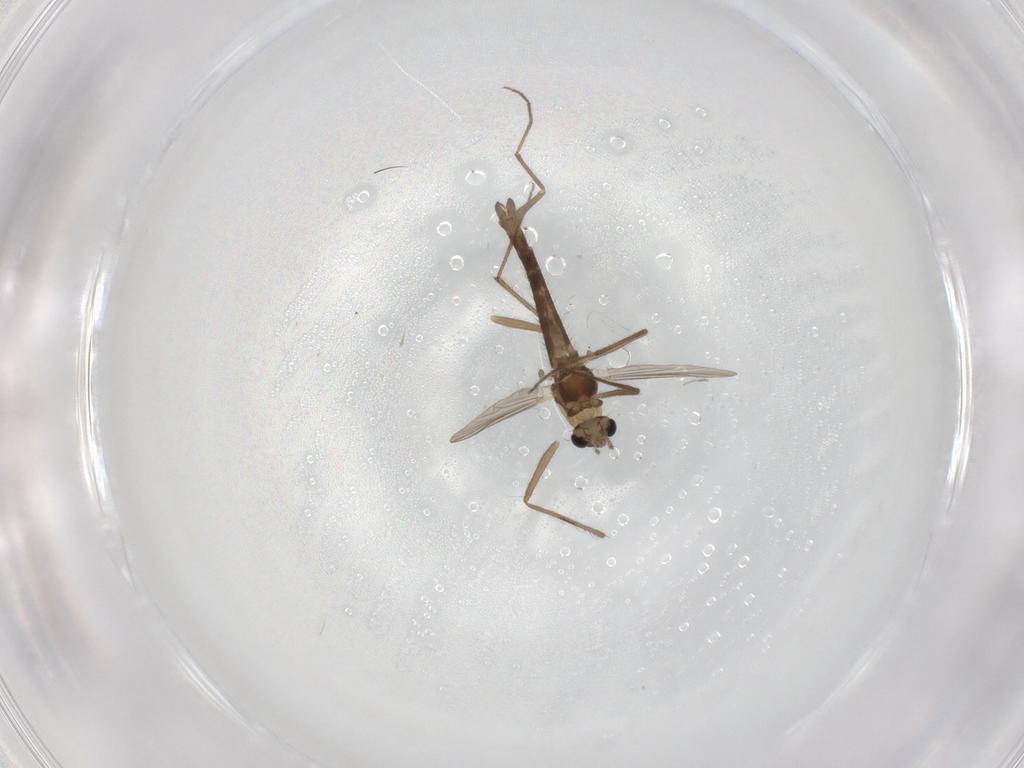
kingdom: Animalia
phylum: Arthropoda
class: Insecta
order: Diptera
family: Chironomidae
